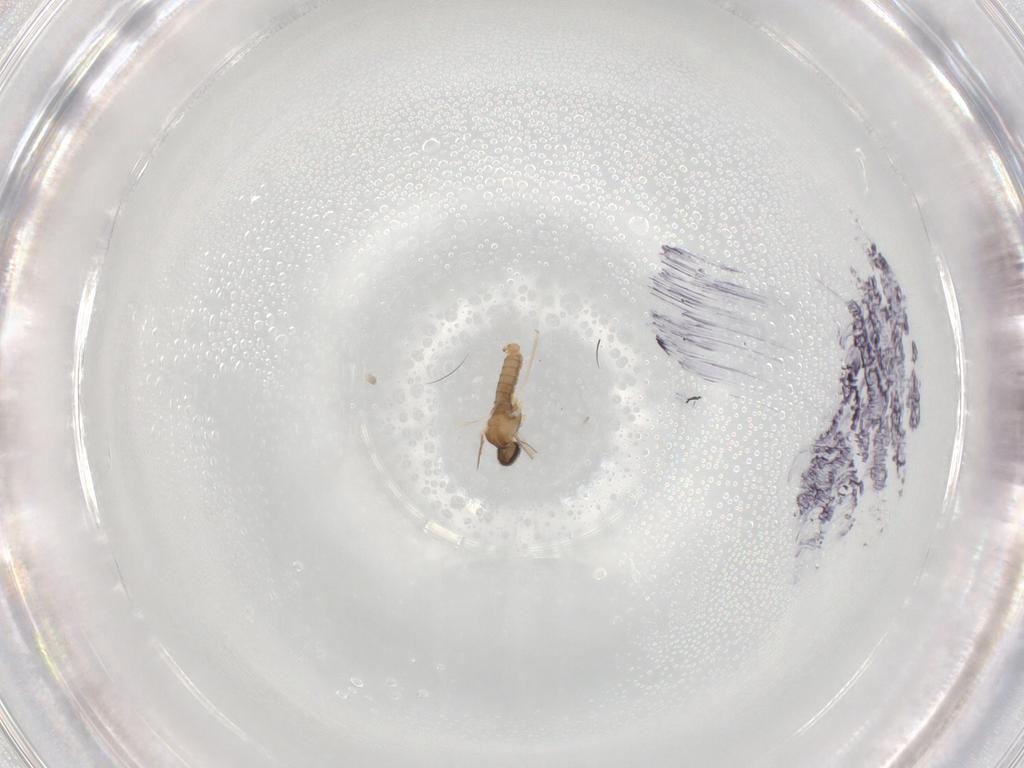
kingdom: Animalia
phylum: Arthropoda
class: Insecta
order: Diptera
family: Cecidomyiidae
